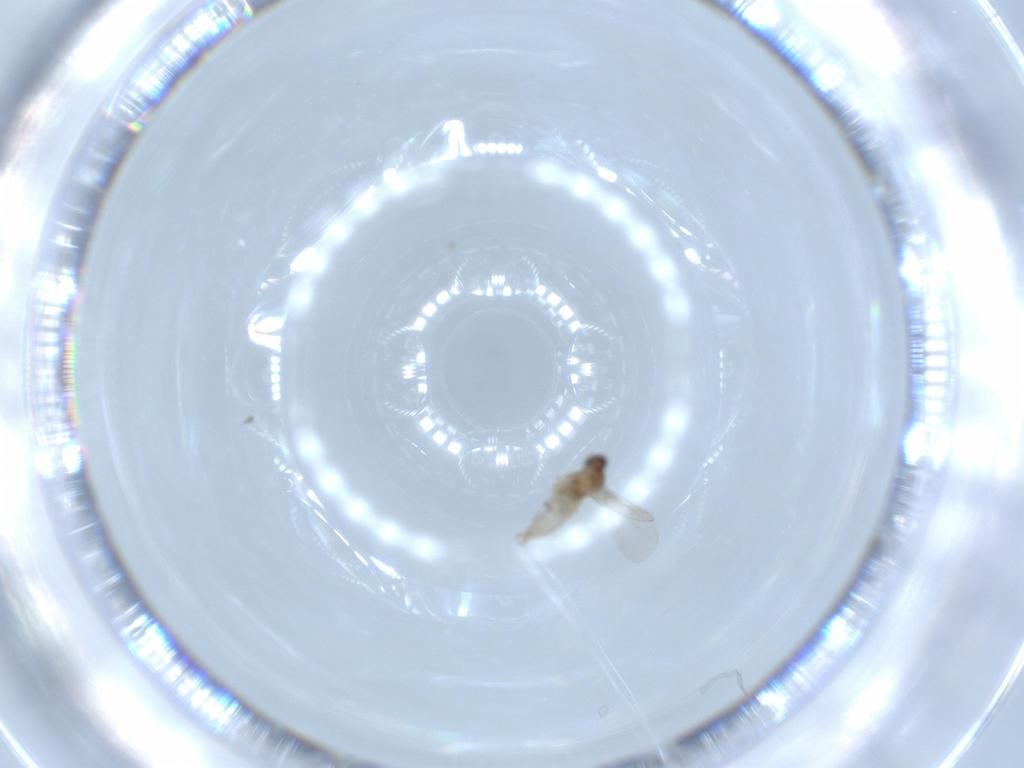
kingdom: Animalia
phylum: Arthropoda
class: Insecta
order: Diptera
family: Cecidomyiidae
